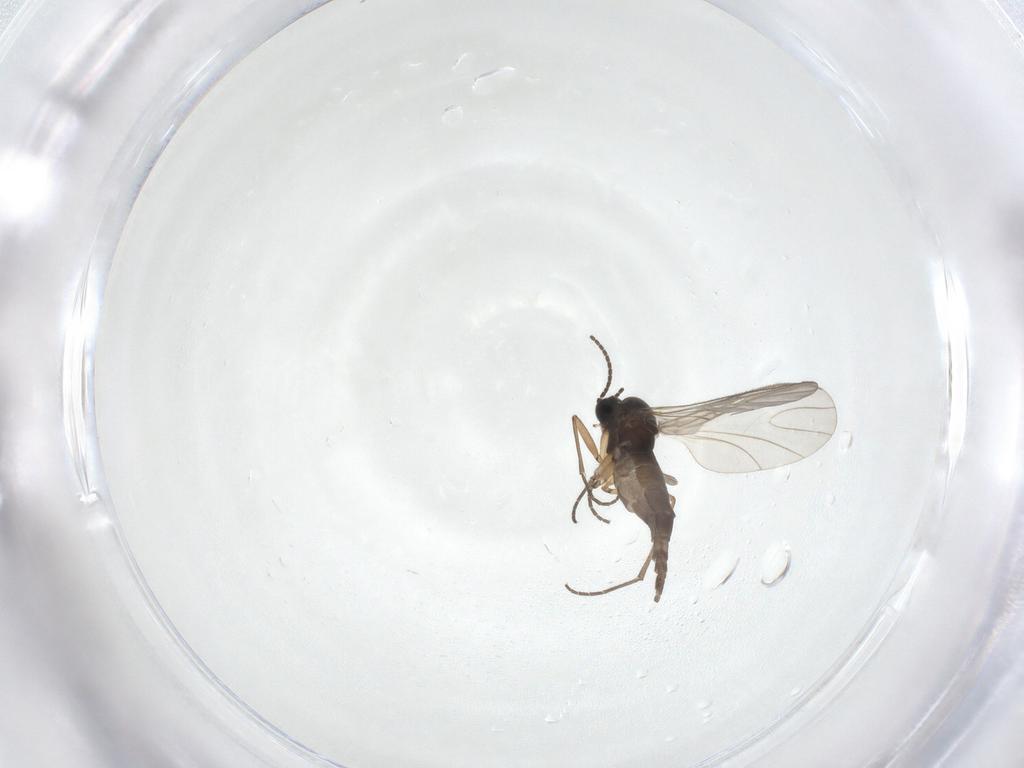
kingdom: Animalia
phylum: Arthropoda
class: Insecta
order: Diptera
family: Sciaridae
